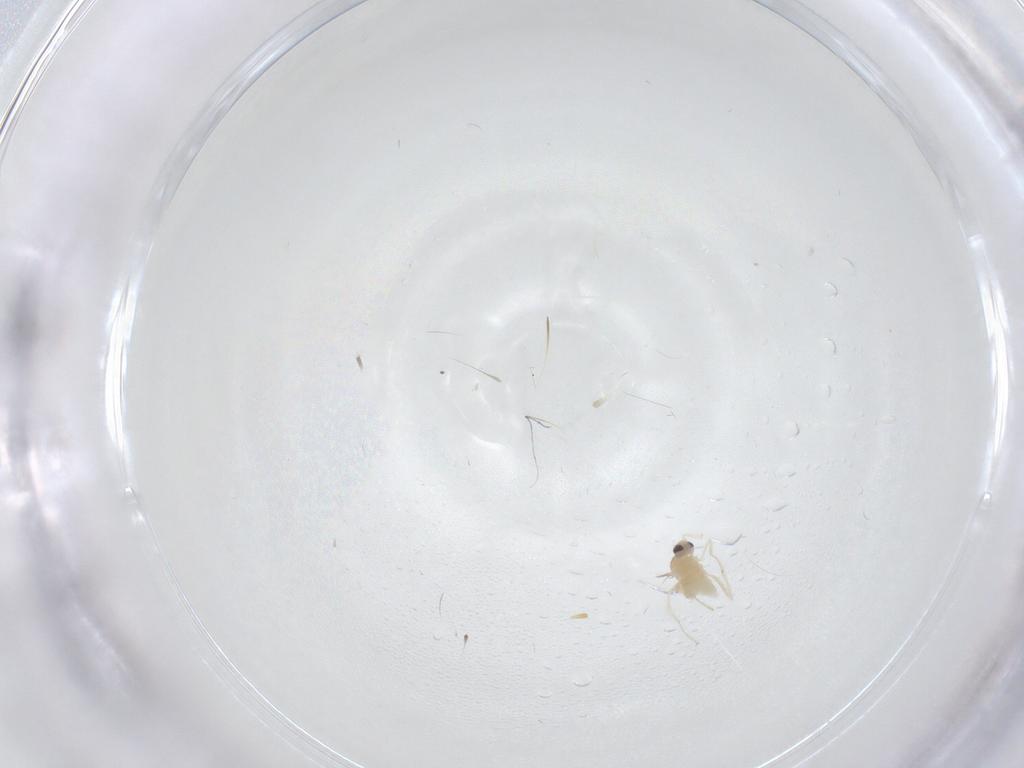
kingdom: Animalia
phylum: Arthropoda
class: Insecta
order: Diptera
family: Cecidomyiidae
